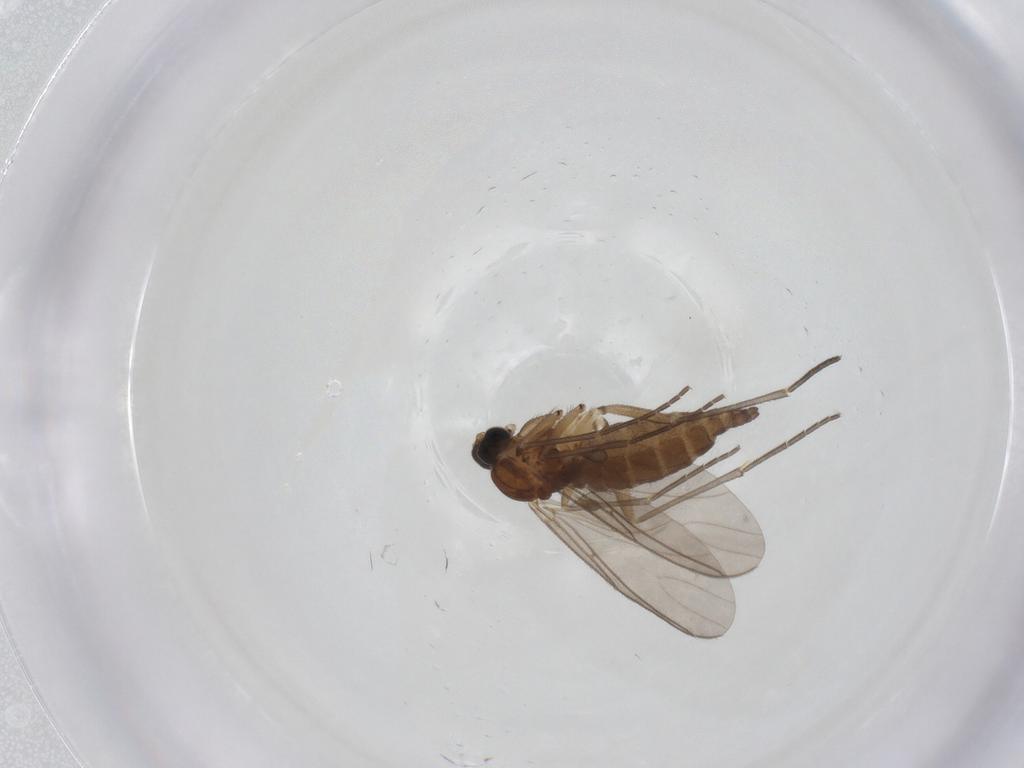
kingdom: Animalia
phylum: Arthropoda
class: Insecta
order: Diptera
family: Sciaridae
